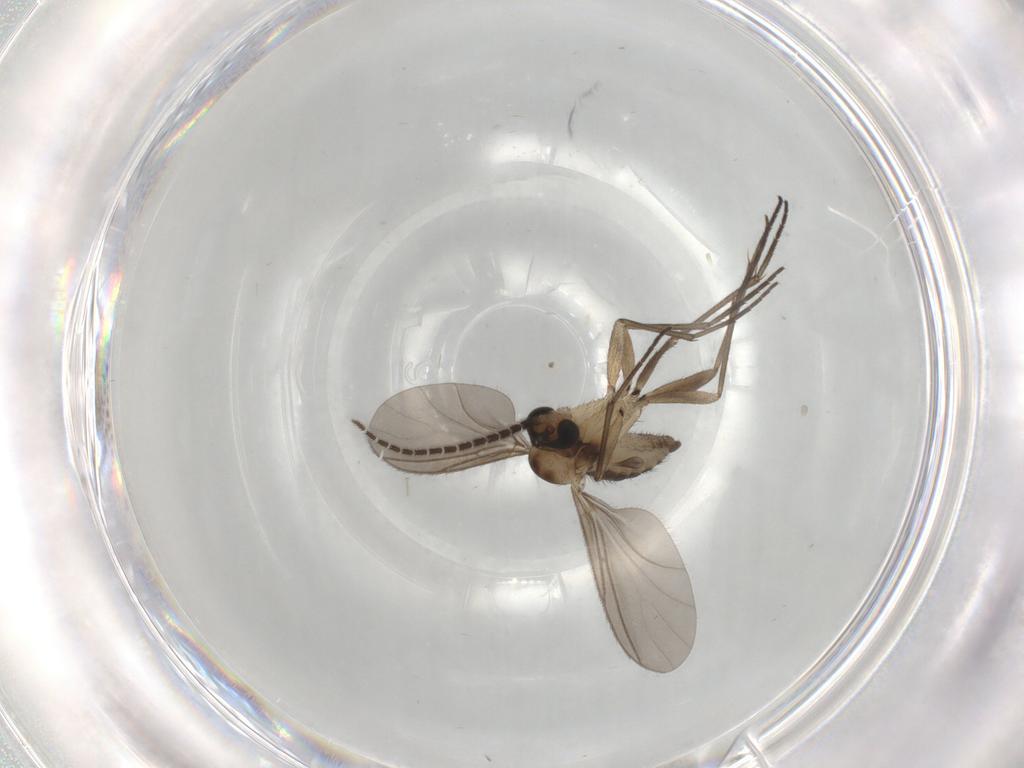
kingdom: Animalia
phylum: Arthropoda
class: Insecta
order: Diptera
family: Sciaridae
